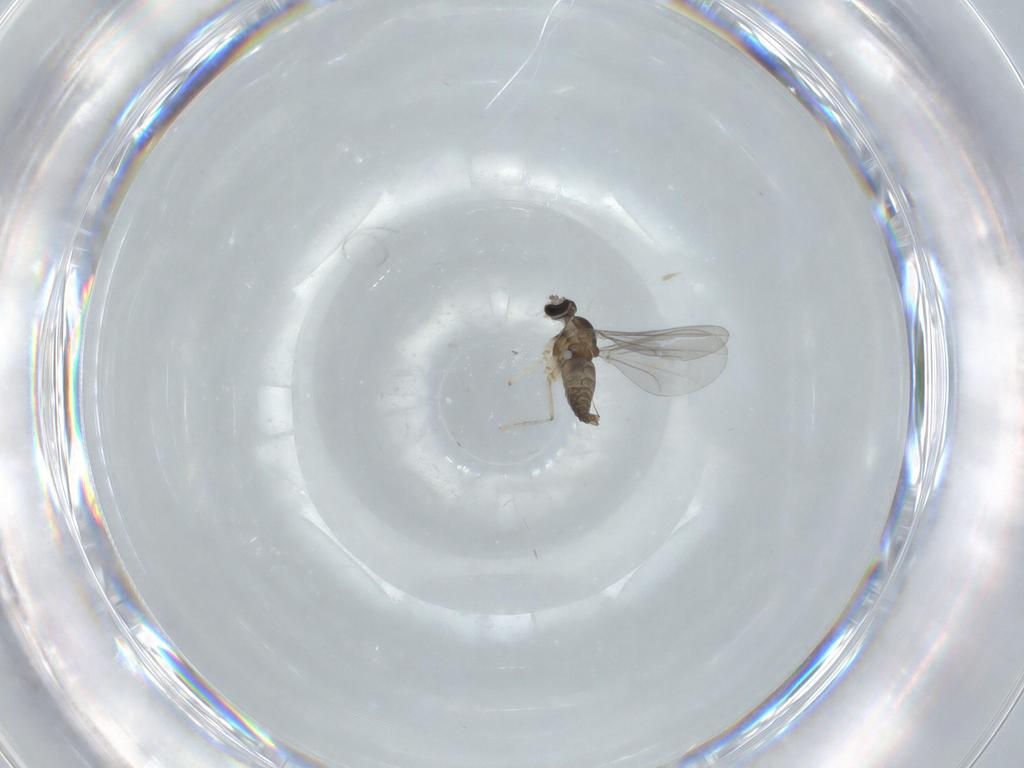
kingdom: Animalia
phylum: Arthropoda
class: Insecta
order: Diptera
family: Cecidomyiidae
